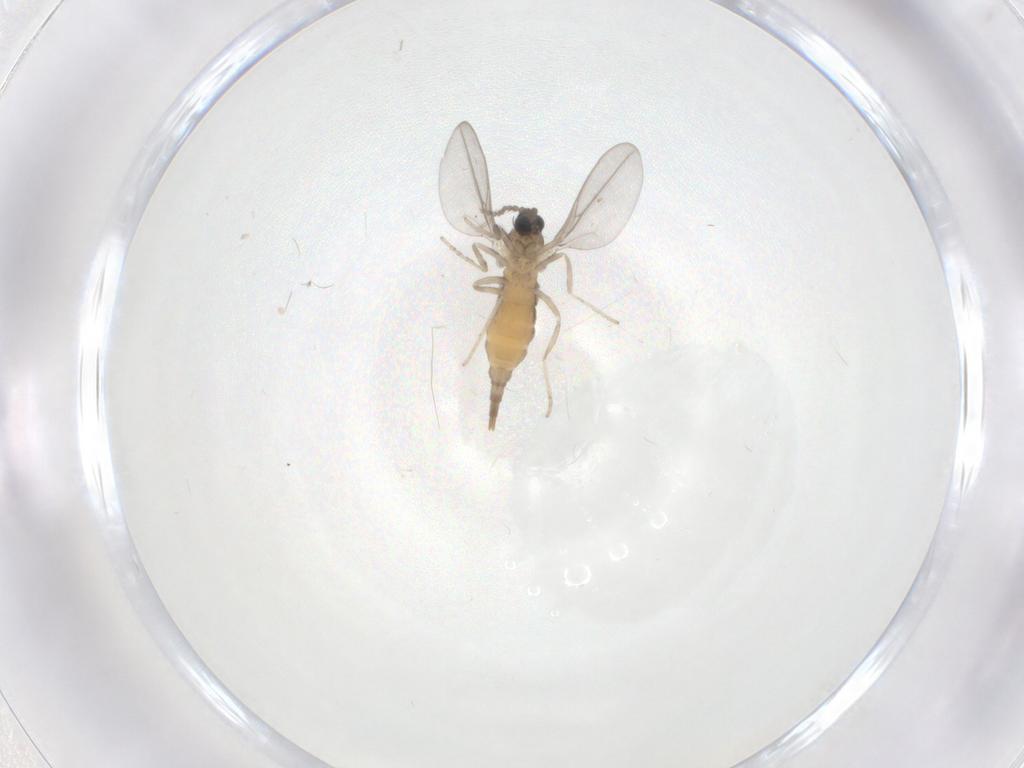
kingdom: Animalia
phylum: Arthropoda
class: Insecta
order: Diptera
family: Cecidomyiidae
